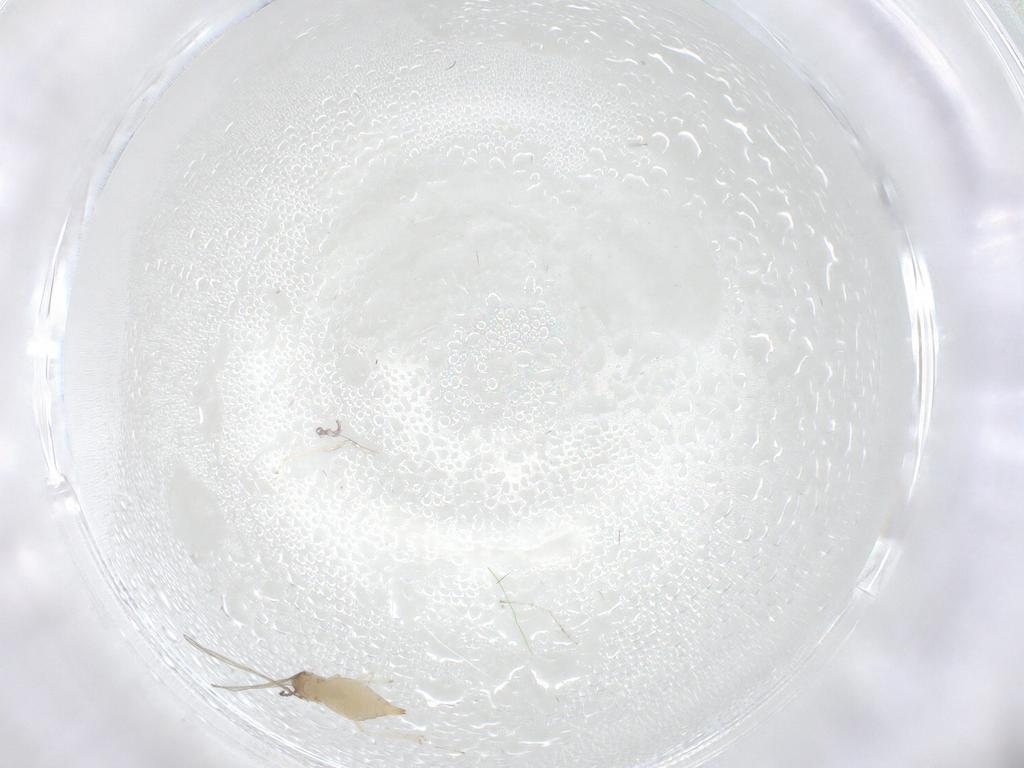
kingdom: Animalia
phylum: Arthropoda
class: Insecta
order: Diptera
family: Cecidomyiidae
